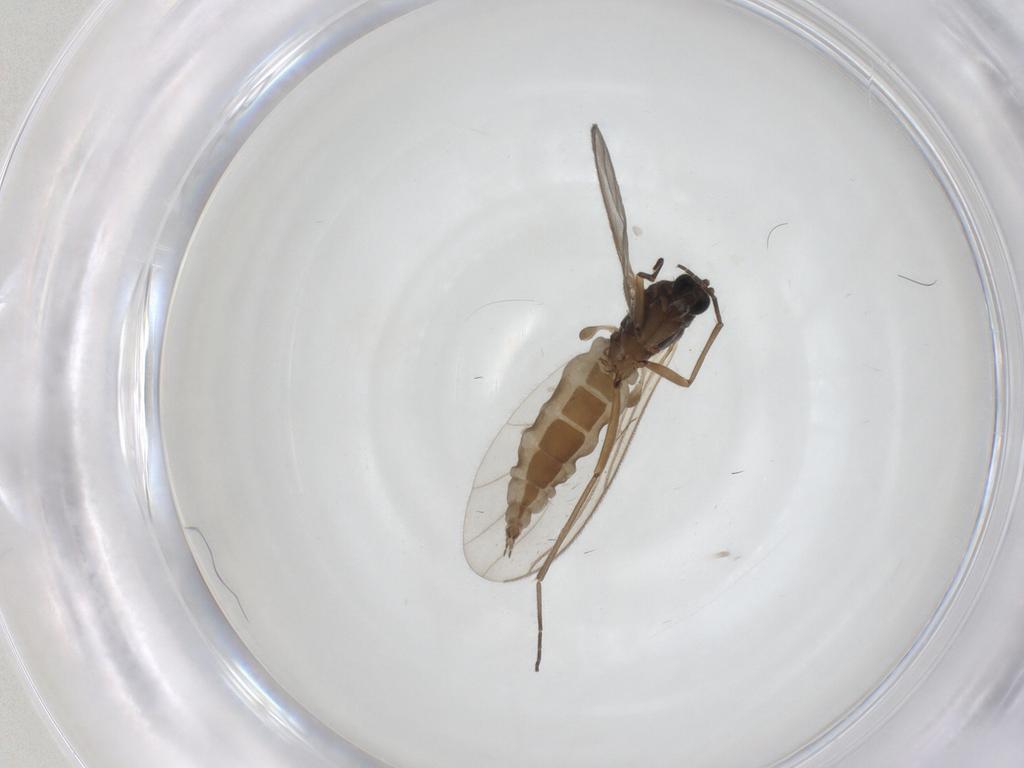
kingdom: Animalia
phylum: Arthropoda
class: Insecta
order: Diptera
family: Sciaridae
